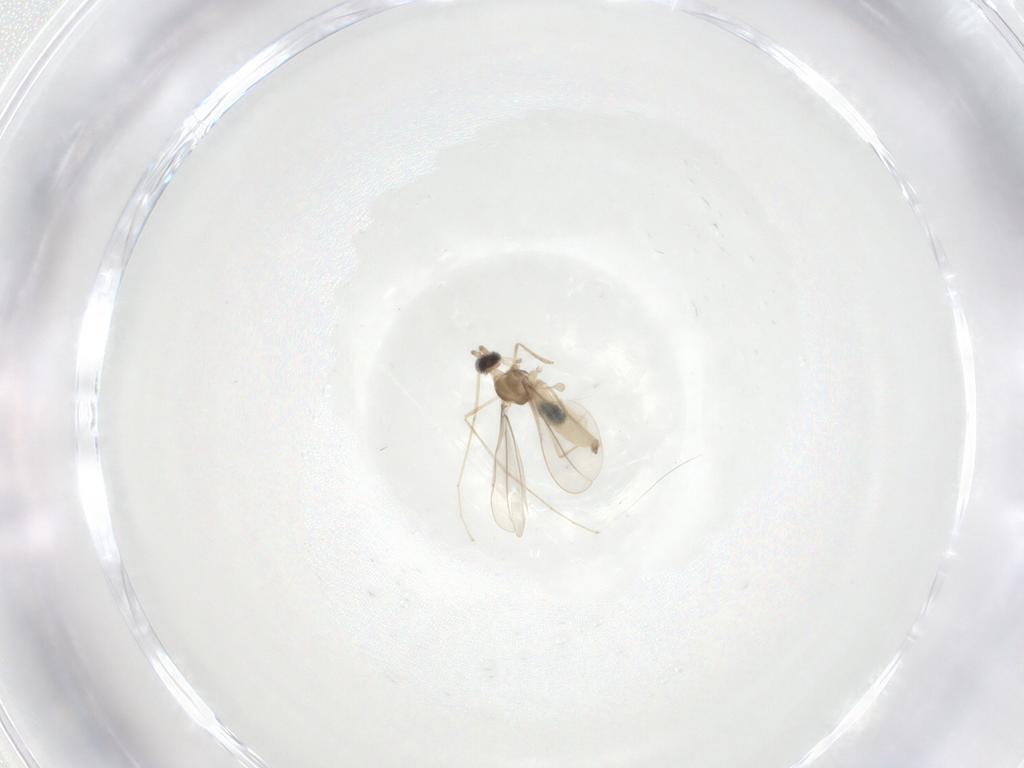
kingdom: Animalia
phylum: Arthropoda
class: Insecta
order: Diptera
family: Cecidomyiidae
